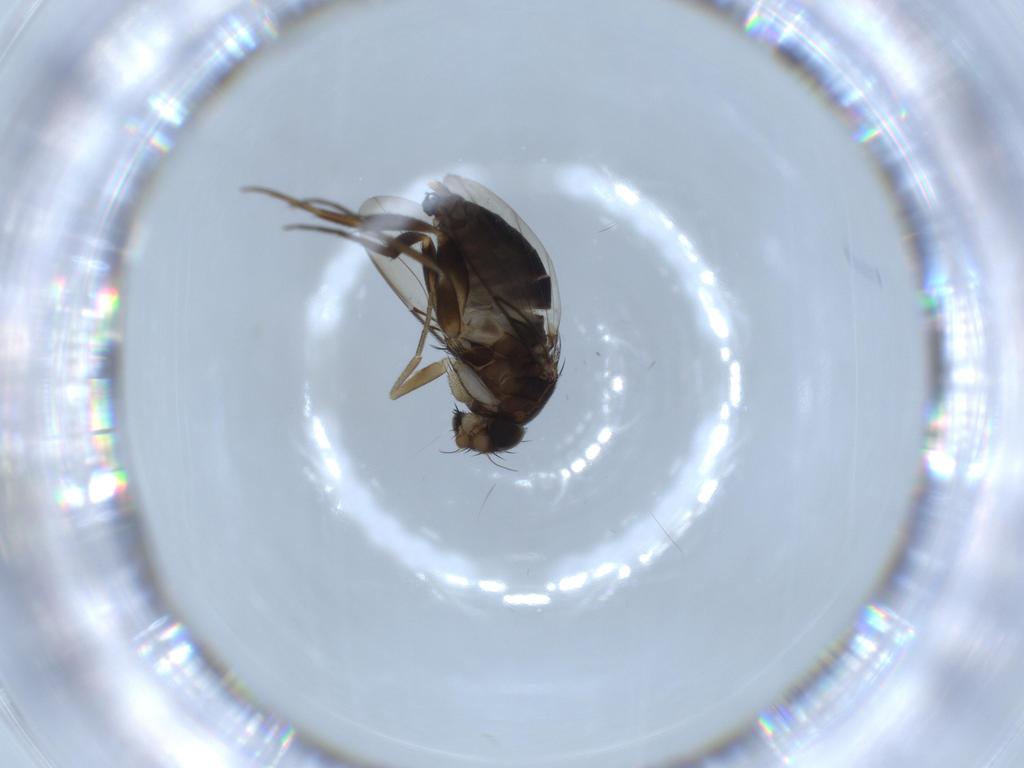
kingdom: Animalia
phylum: Arthropoda
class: Insecta
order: Diptera
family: Phoridae
